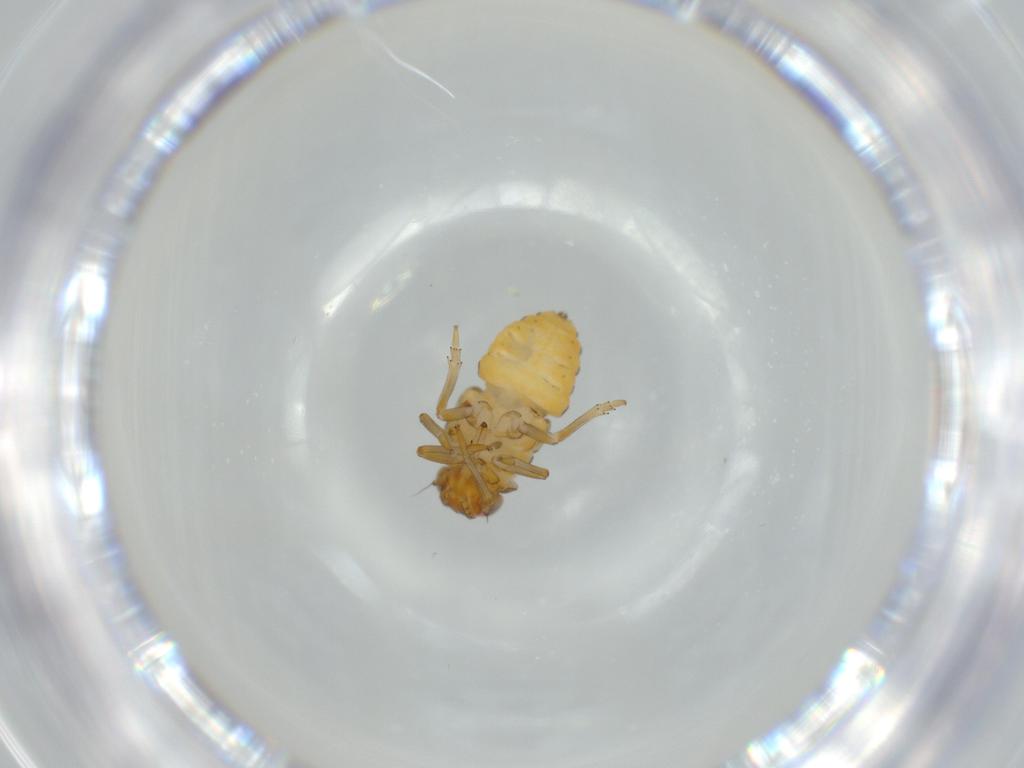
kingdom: Animalia
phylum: Arthropoda
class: Insecta
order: Hemiptera
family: Issidae
